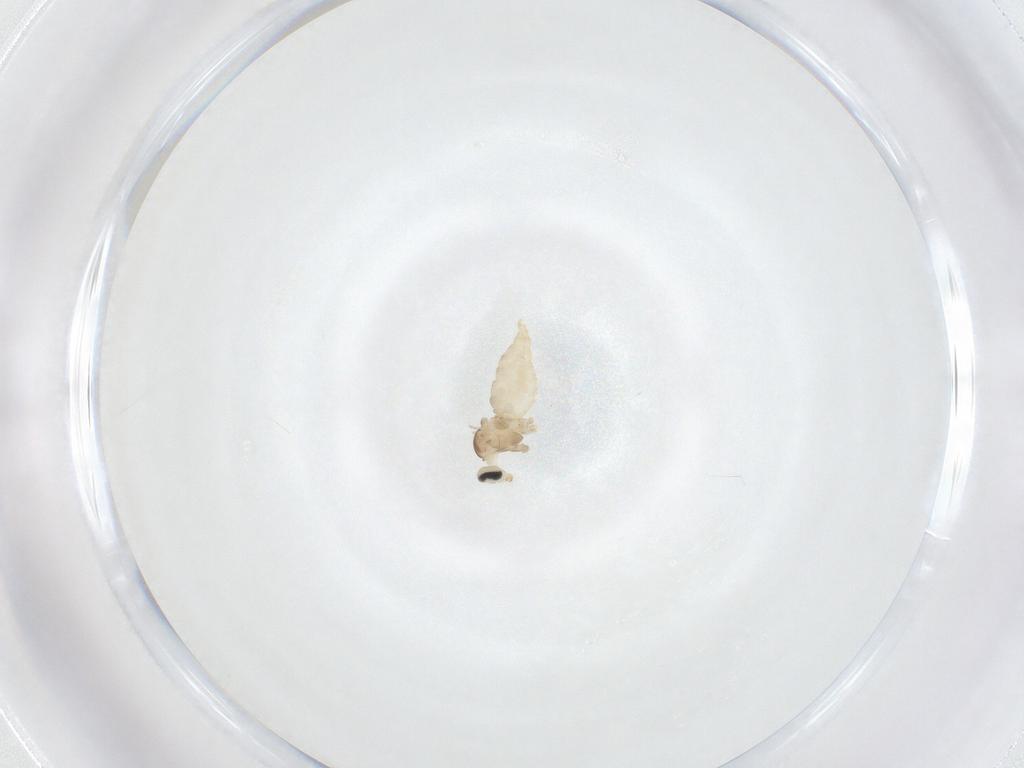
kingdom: Animalia
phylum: Arthropoda
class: Insecta
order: Diptera
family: Cecidomyiidae
